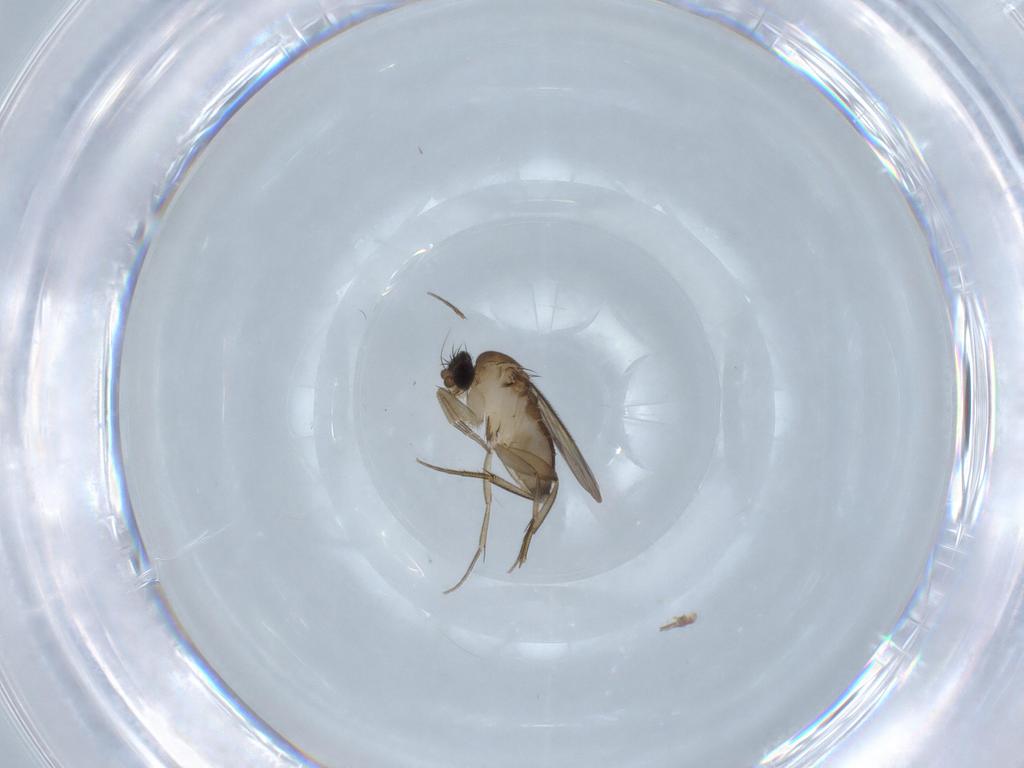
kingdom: Animalia
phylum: Arthropoda
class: Insecta
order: Diptera
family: Phoridae
